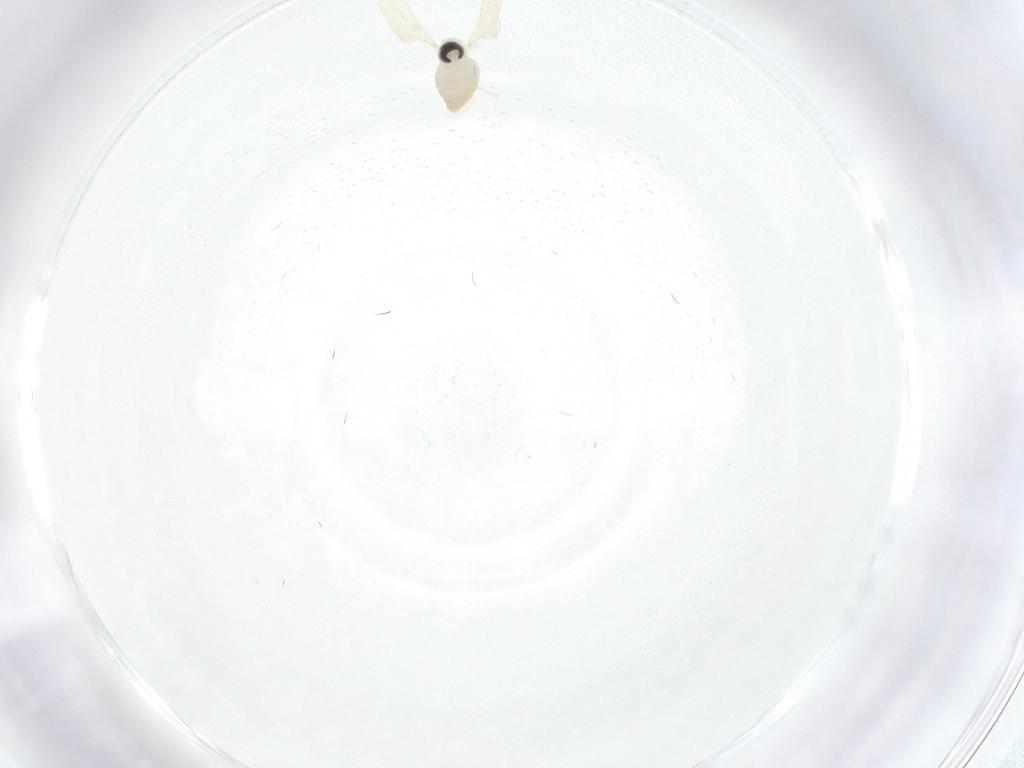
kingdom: Animalia
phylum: Arthropoda
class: Insecta
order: Diptera
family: Cecidomyiidae
